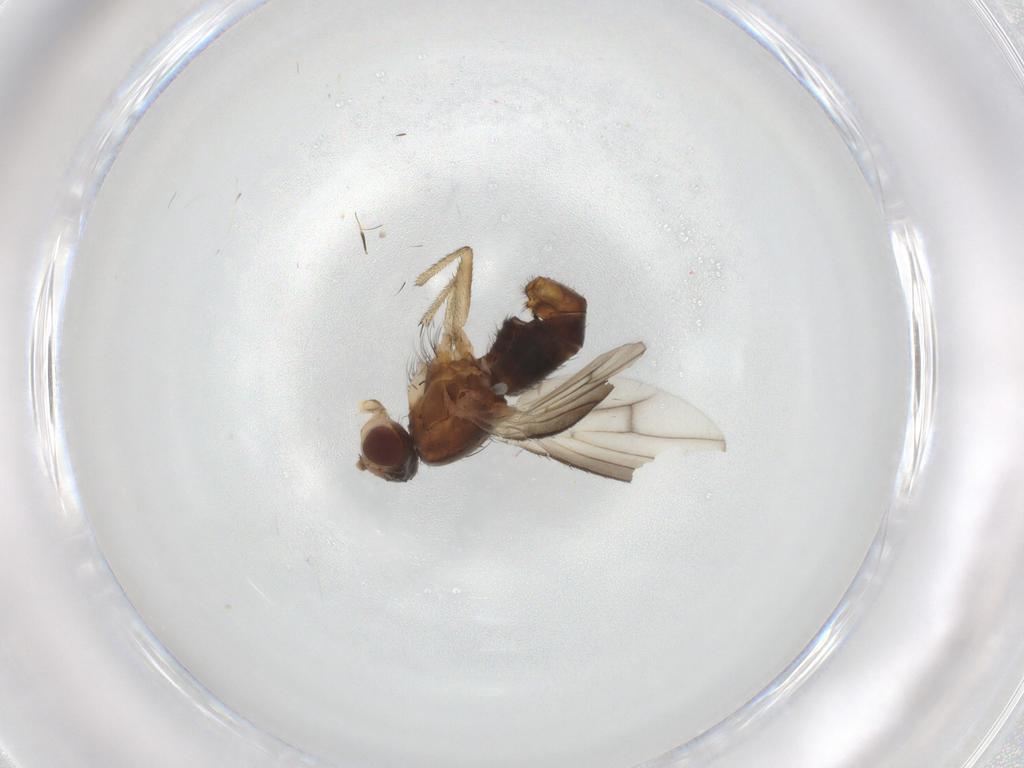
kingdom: Animalia
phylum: Arthropoda
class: Insecta
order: Diptera
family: Heleomyzidae
